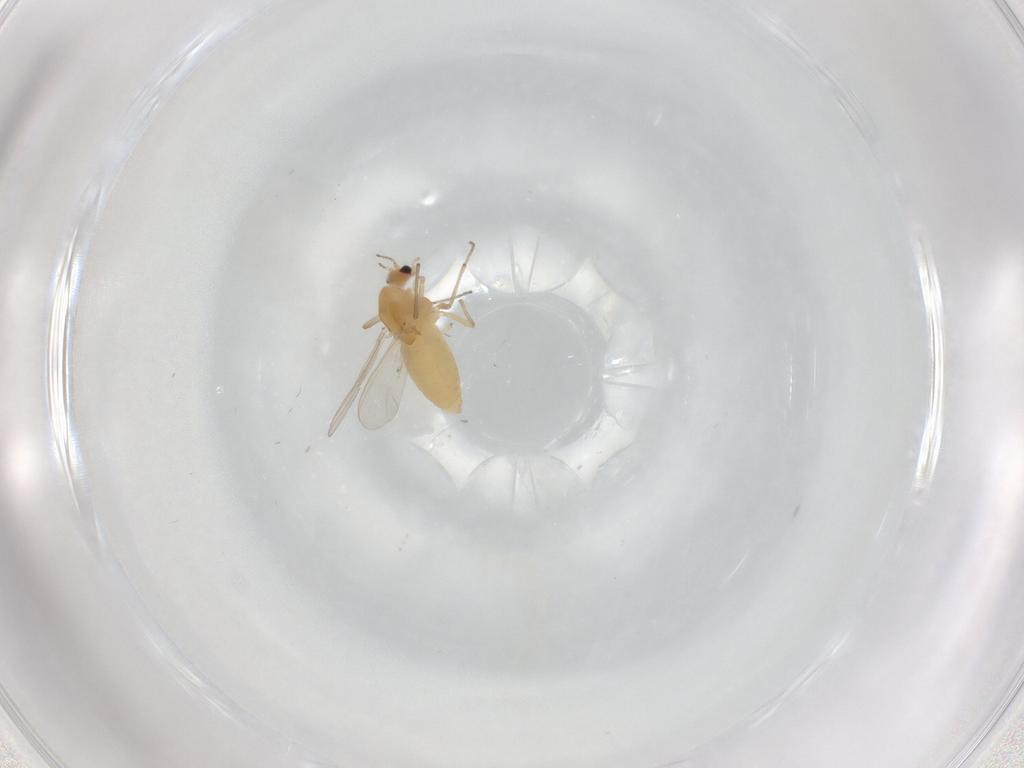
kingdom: Animalia
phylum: Arthropoda
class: Insecta
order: Diptera
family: Chironomidae
